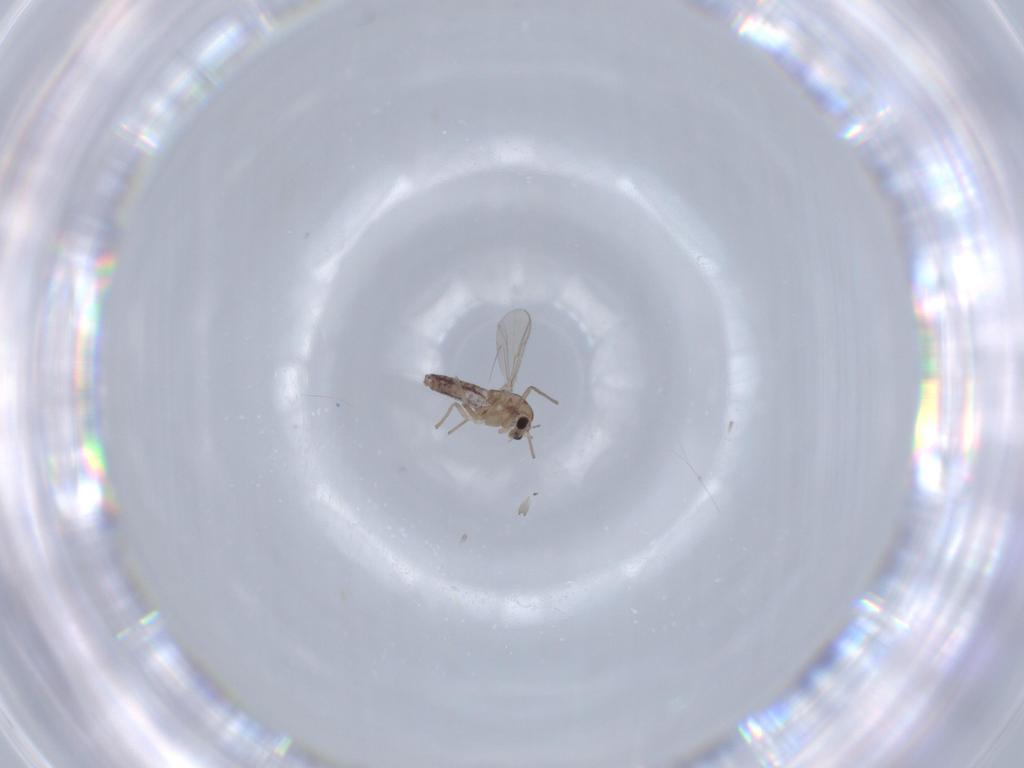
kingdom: Animalia
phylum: Arthropoda
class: Insecta
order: Diptera
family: Chironomidae
